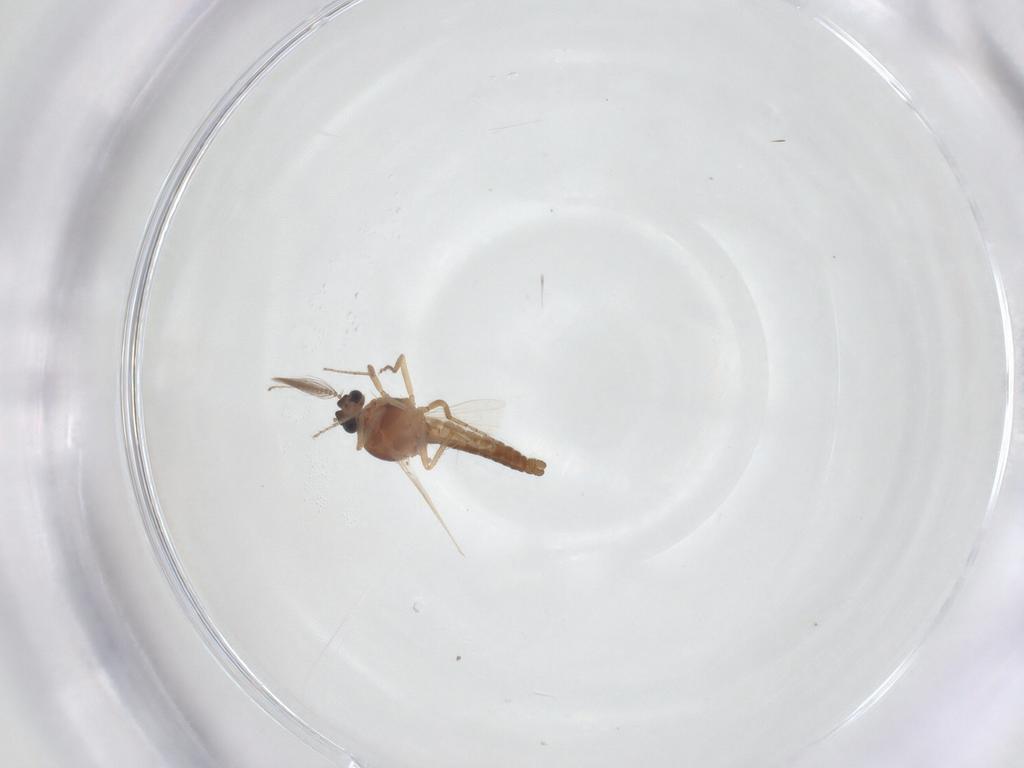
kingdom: Animalia
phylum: Arthropoda
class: Insecta
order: Diptera
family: Ceratopogonidae
